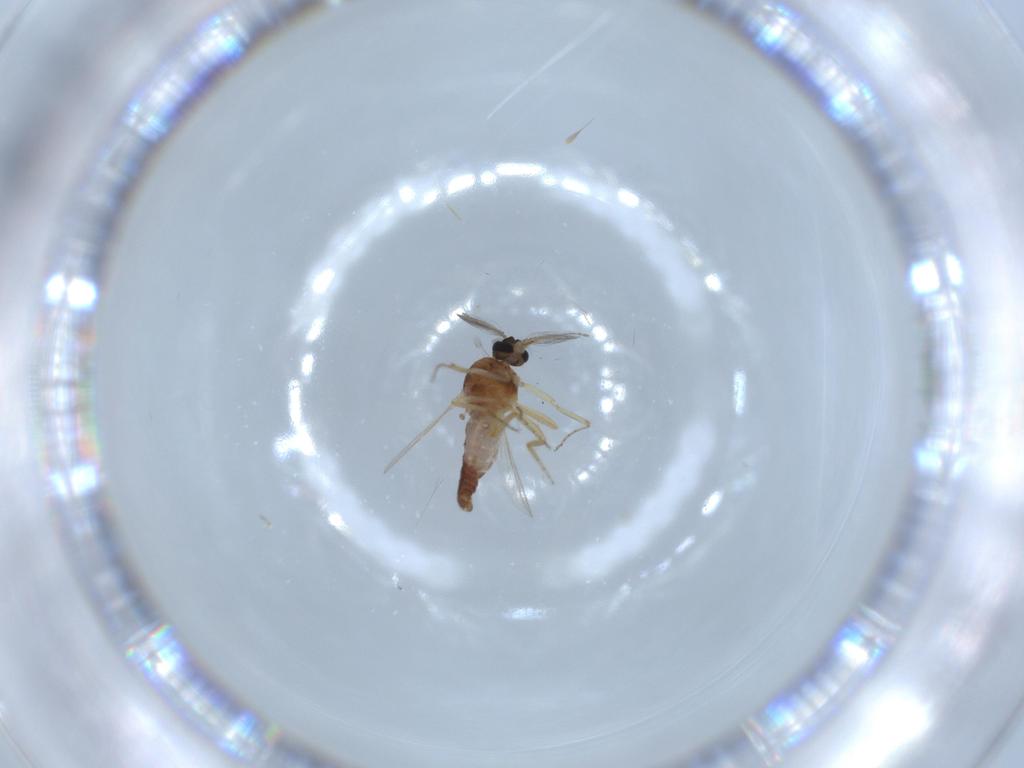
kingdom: Animalia
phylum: Arthropoda
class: Insecta
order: Diptera
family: Ceratopogonidae
